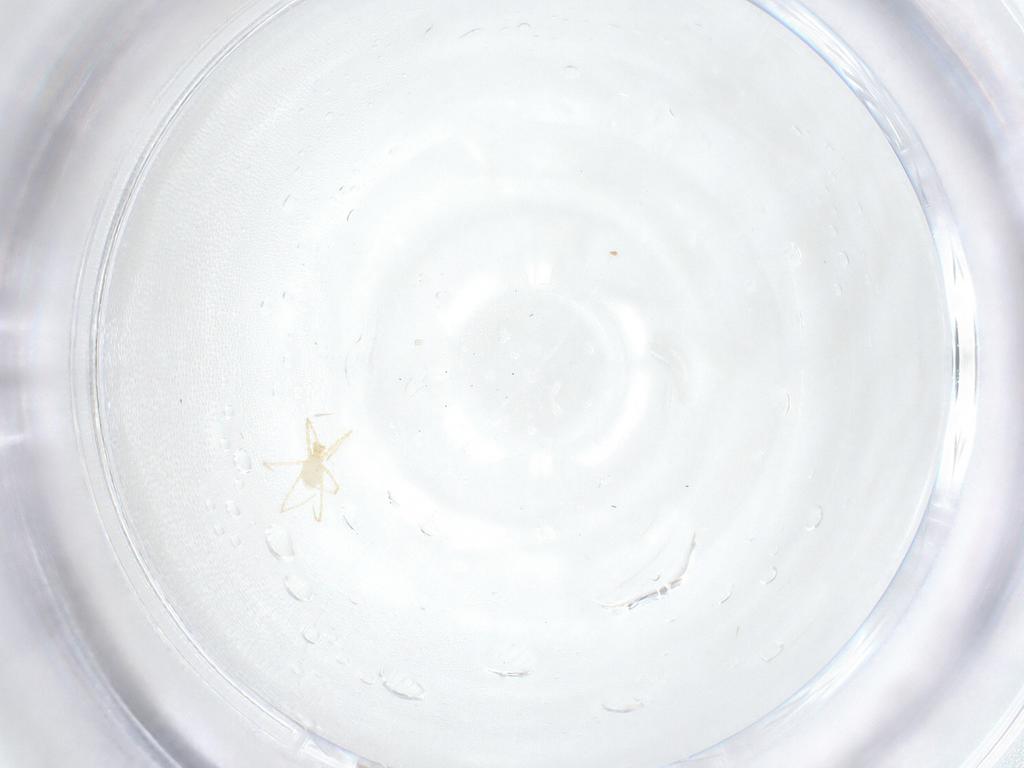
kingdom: Animalia
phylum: Arthropoda
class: Arachnida
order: Trombidiformes
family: Erythraeidae
